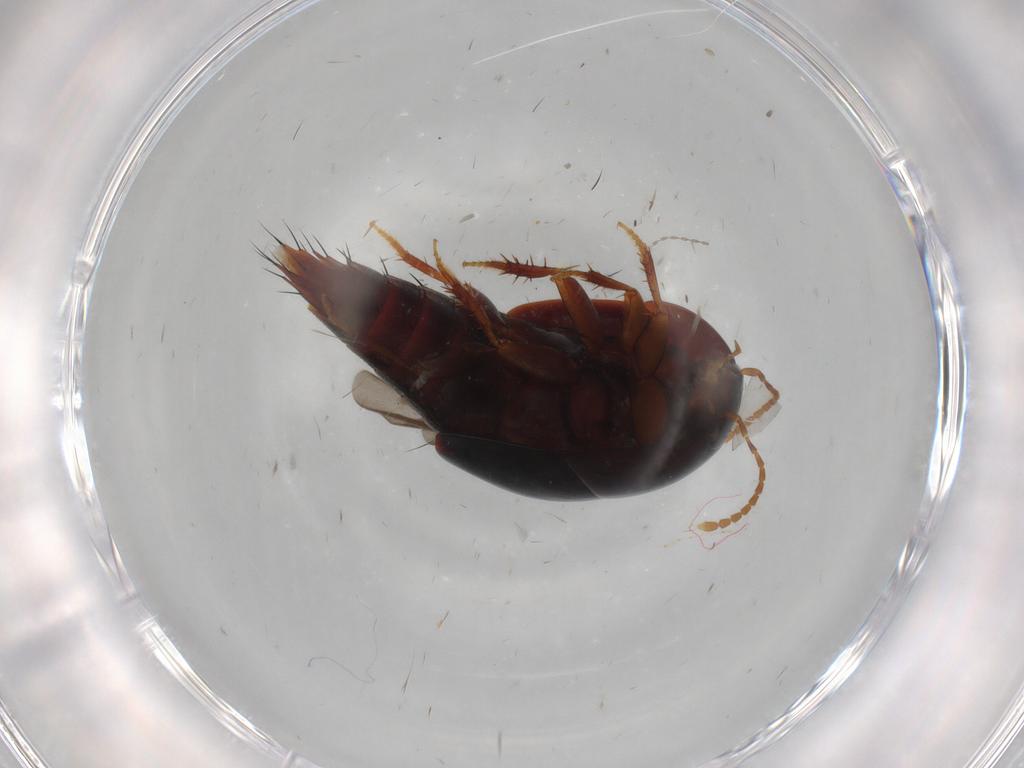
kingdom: Animalia
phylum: Arthropoda
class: Insecta
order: Coleoptera
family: Staphylinidae
